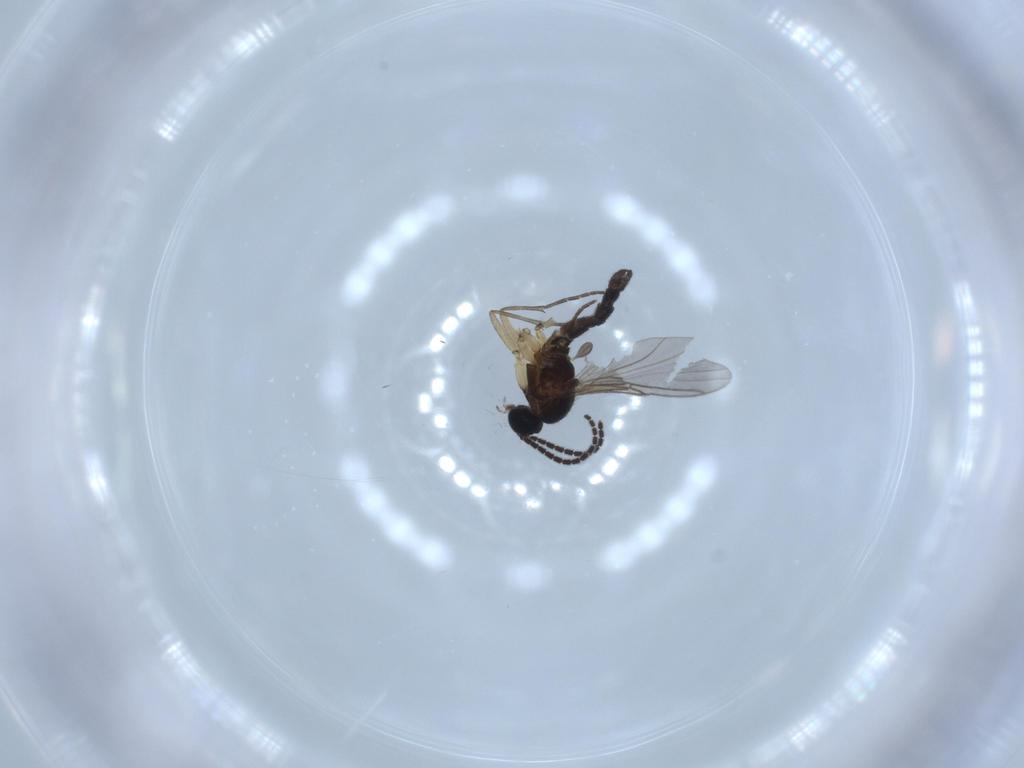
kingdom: Animalia
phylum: Arthropoda
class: Insecta
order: Diptera
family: Sciaridae
